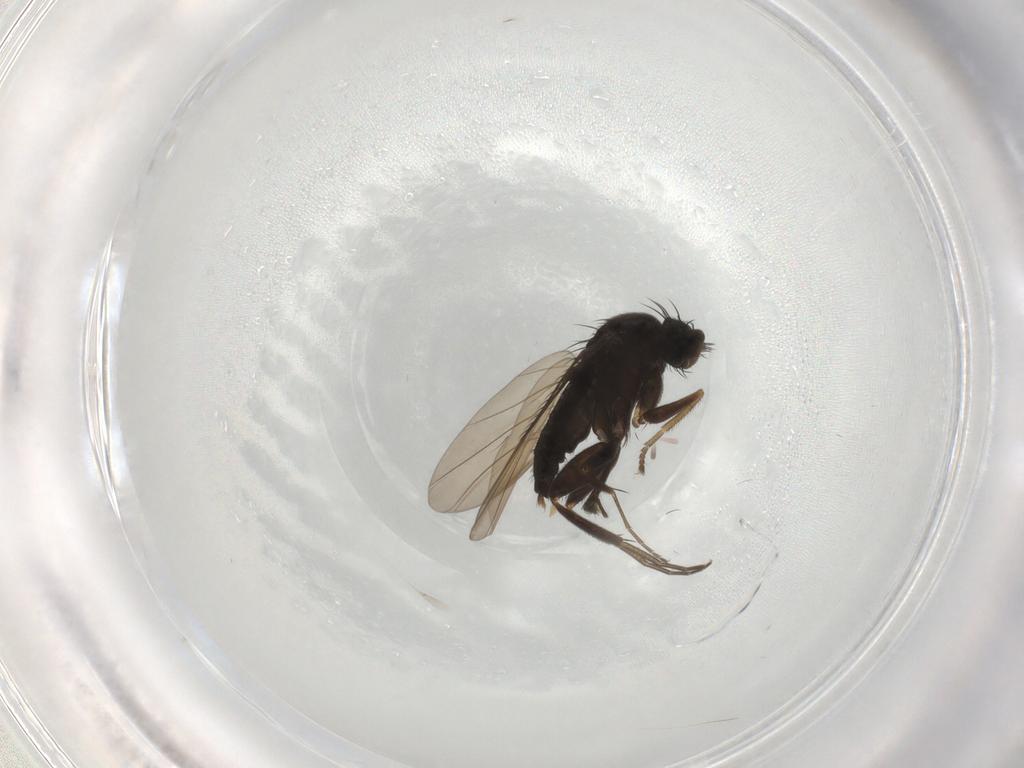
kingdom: Animalia
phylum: Arthropoda
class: Insecta
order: Diptera
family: Phoridae
